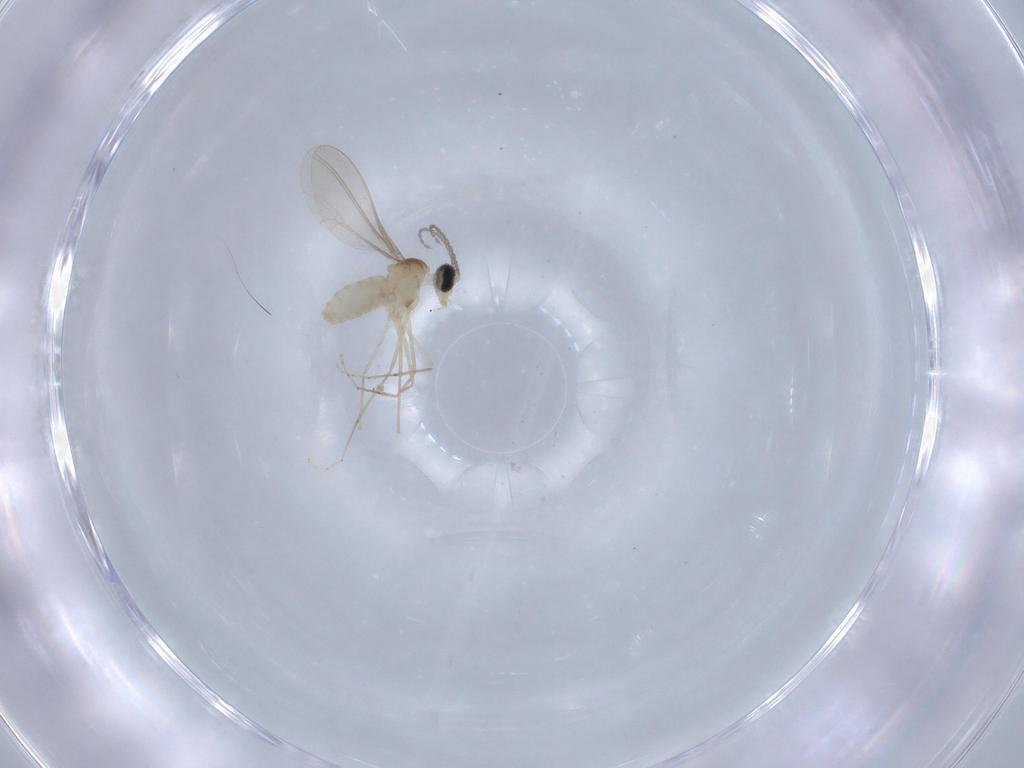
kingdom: Animalia
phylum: Arthropoda
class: Insecta
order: Diptera
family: Cecidomyiidae
